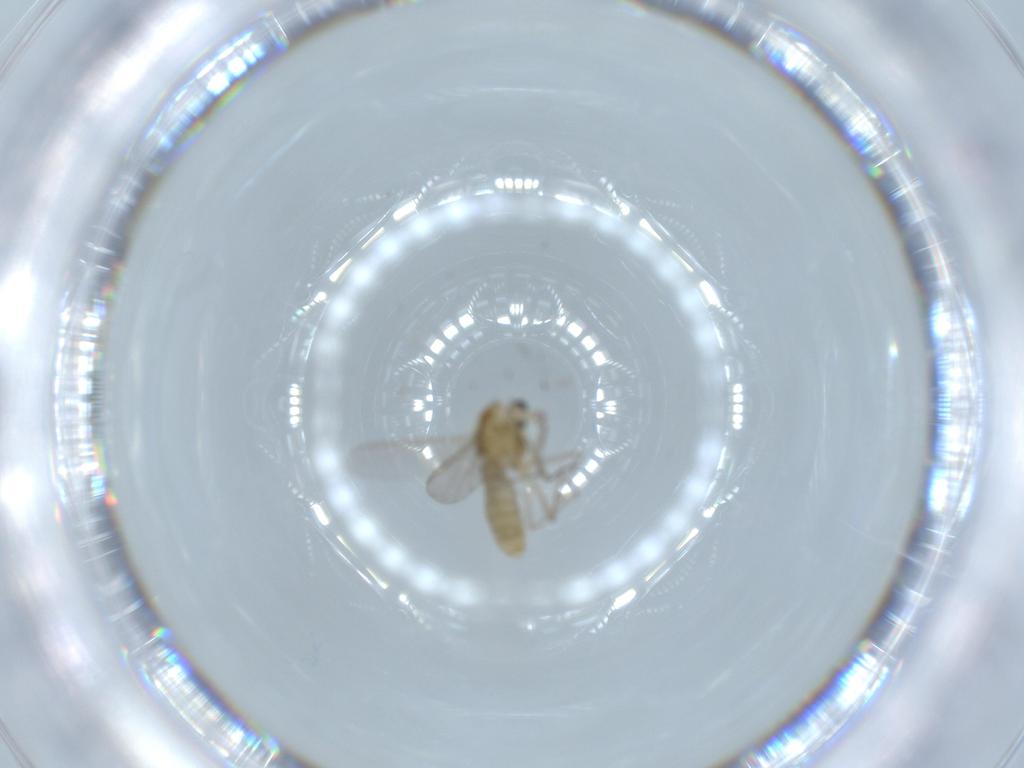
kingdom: Animalia
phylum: Arthropoda
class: Insecta
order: Diptera
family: Chironomidae
